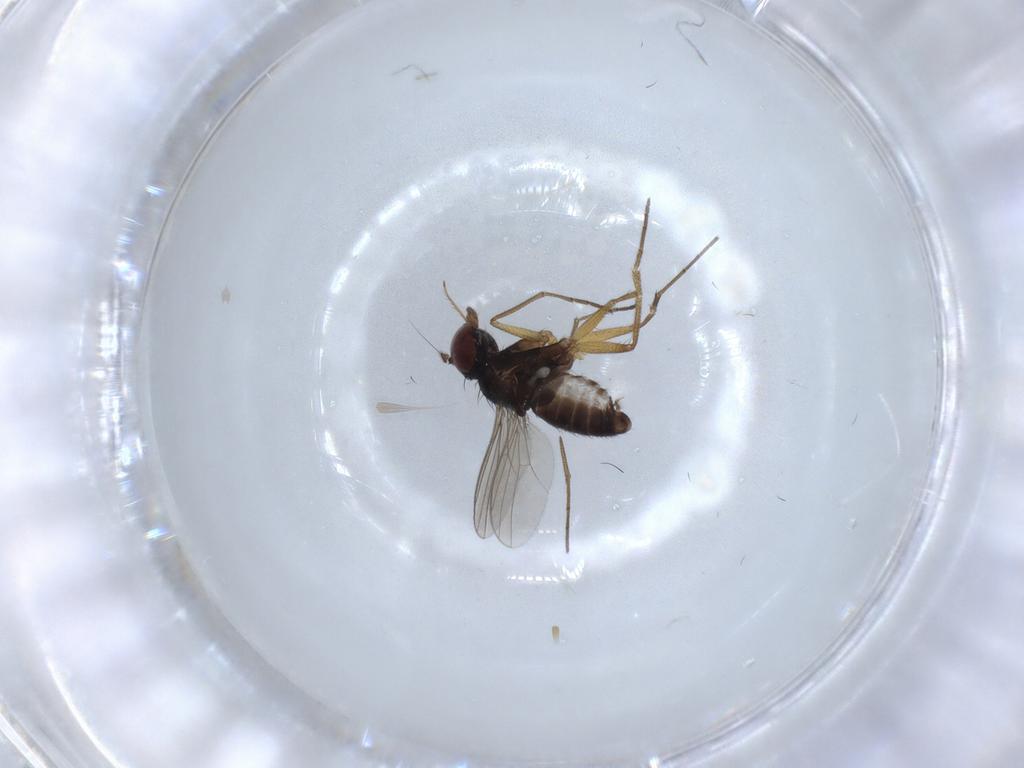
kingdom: Animalia
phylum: Arthropoda
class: Insecta
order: Diptera
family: Dolichopodidae
